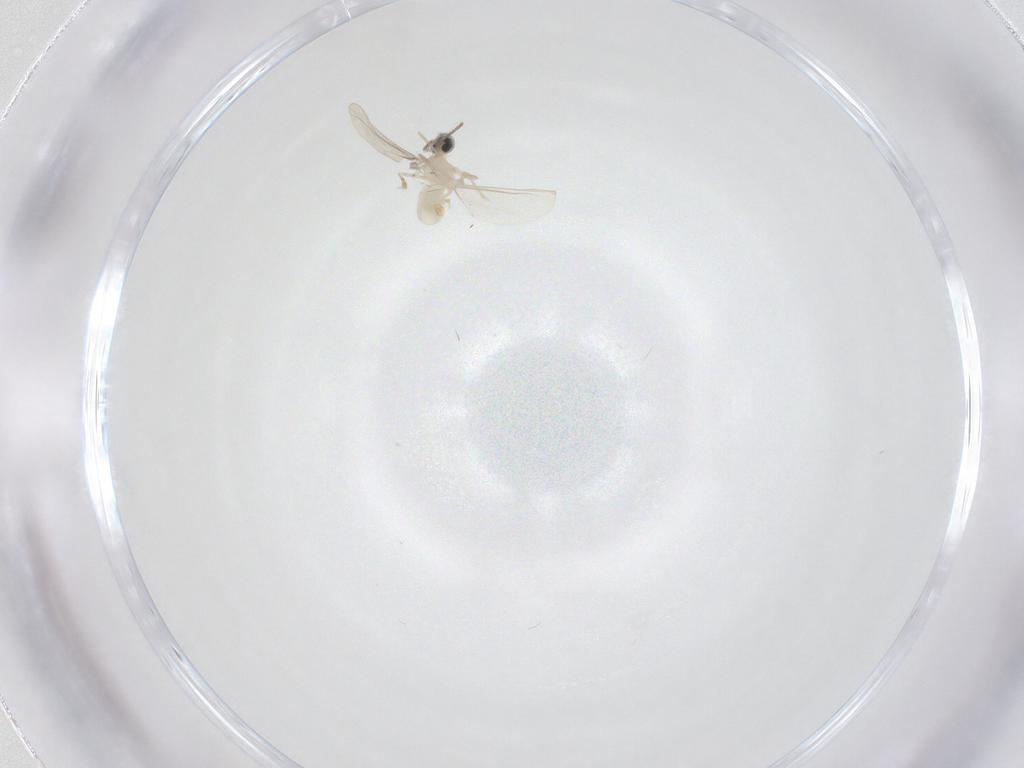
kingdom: Animalia
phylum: Arthropoda
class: Insecta
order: Diptera
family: Cecidomyiidae
